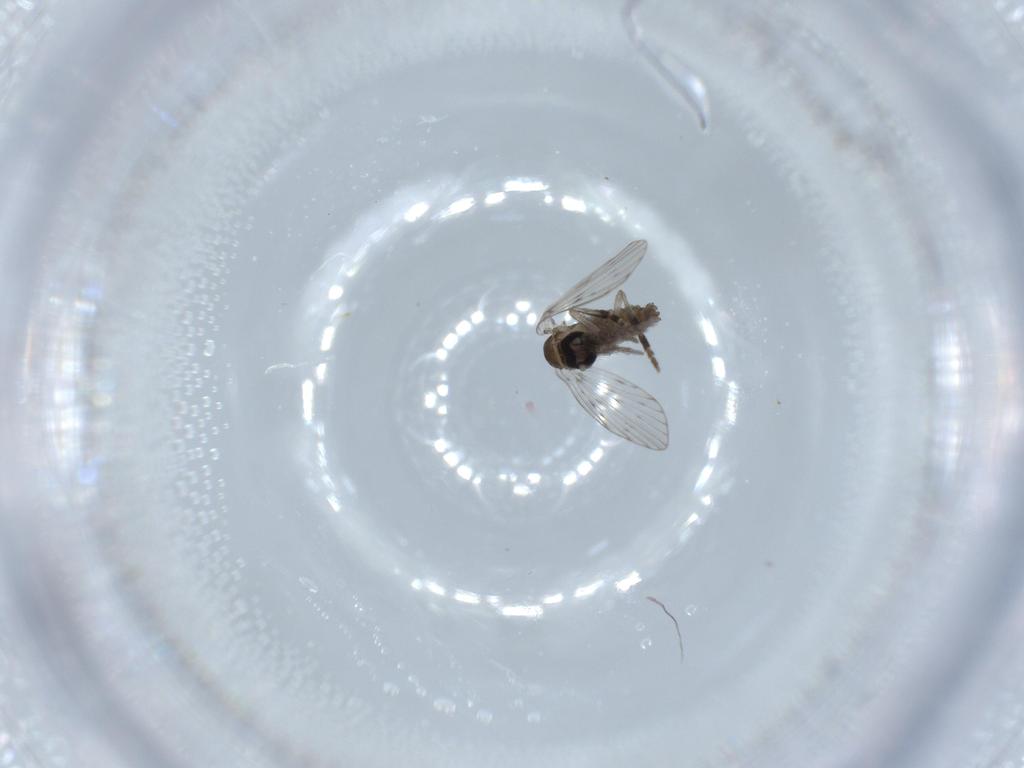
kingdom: Animalia
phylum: Arthropoda
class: Insecta
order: Diptera
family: Psychodidae
